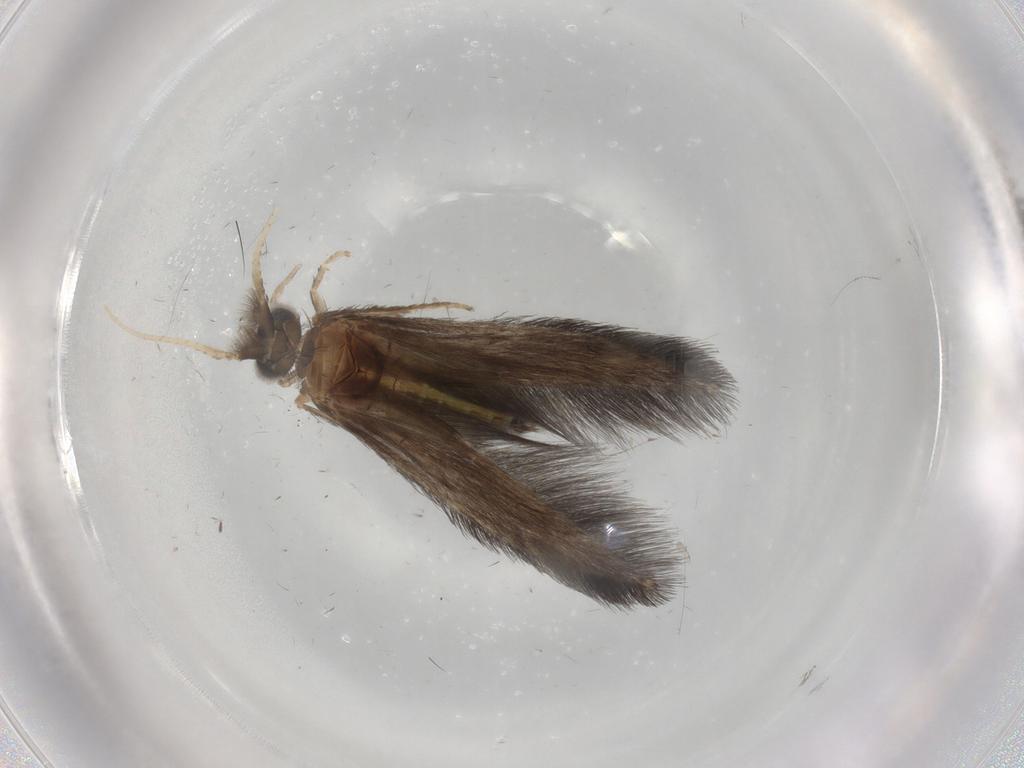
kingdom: Animalia
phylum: Arthropoda
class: Insecta
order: Trichoptera
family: Hydroptilidae
